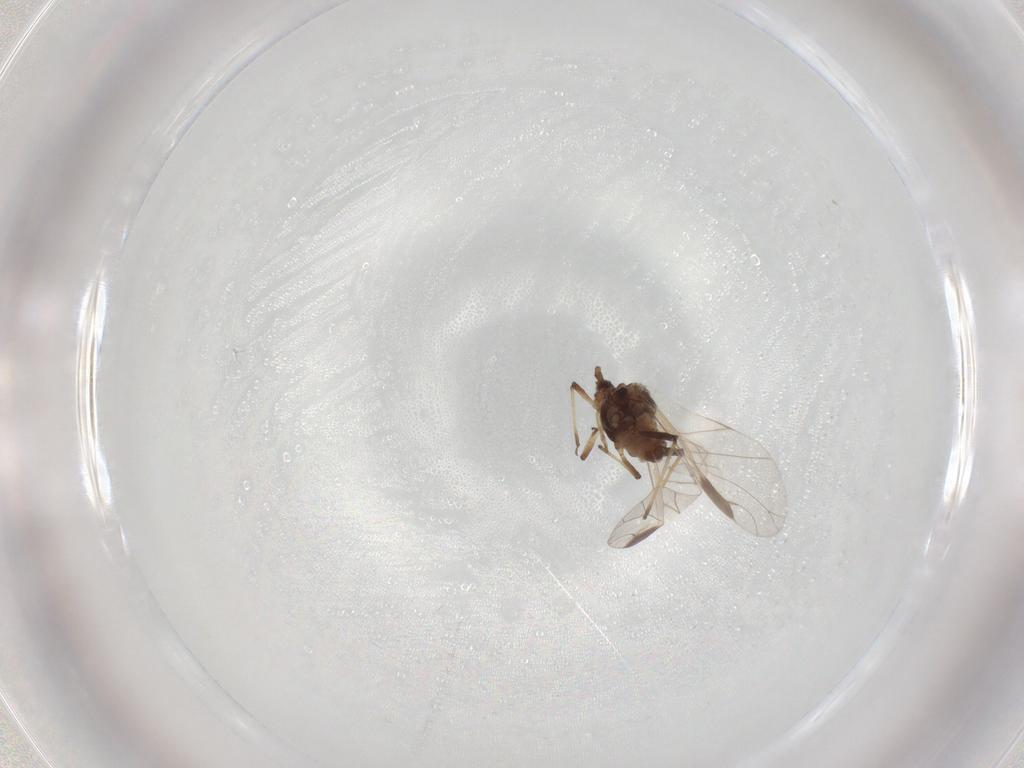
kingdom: Animalia
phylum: Arthropoda
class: Insecta
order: Hemiptera
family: Aphididae
